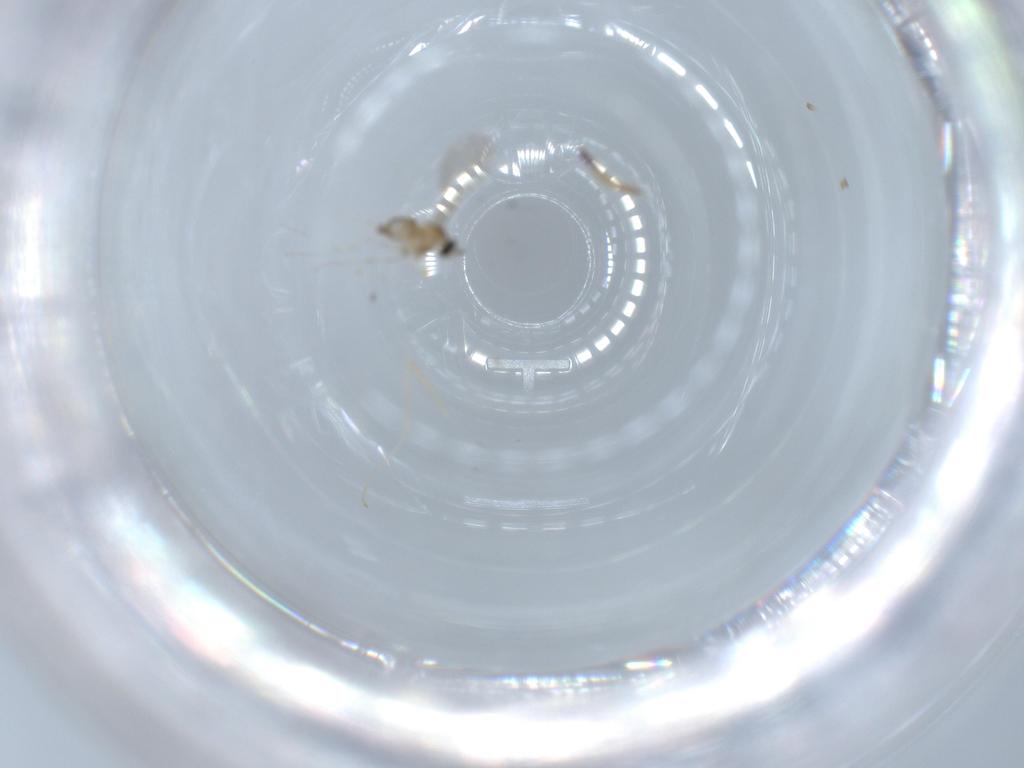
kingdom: Animalia
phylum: Arthropoda
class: Insecta
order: Diptera
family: Cecidomyiidae
